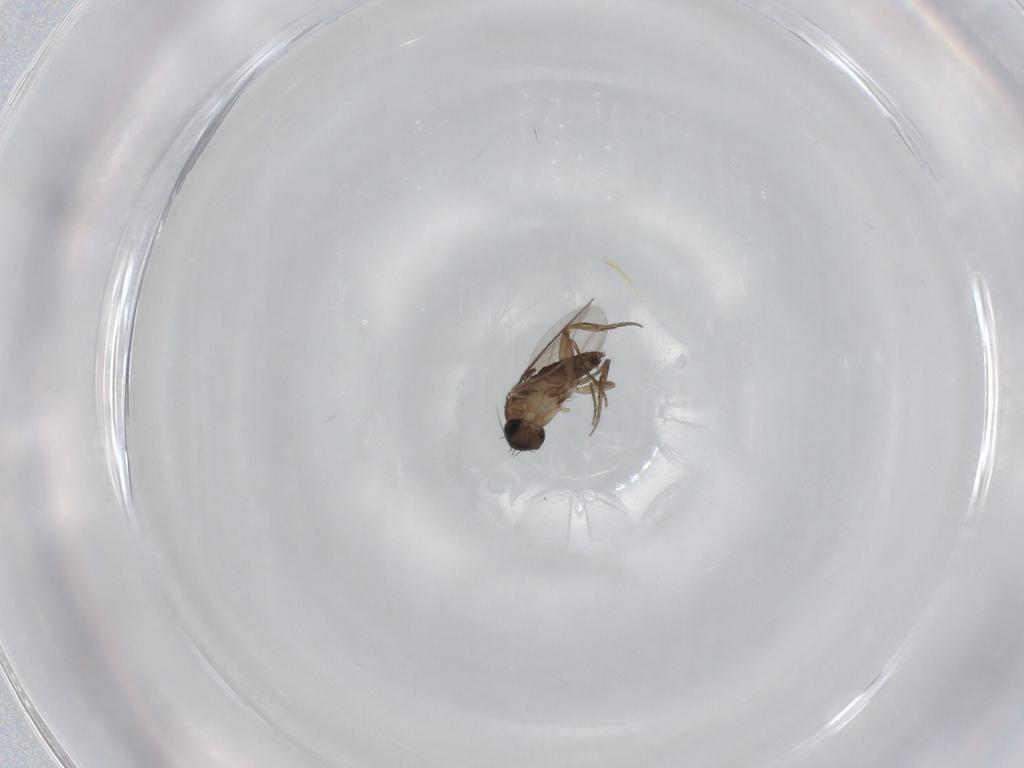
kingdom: Animalia
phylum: Arthropoda
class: Insecta
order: Diptera
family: Phoridae
